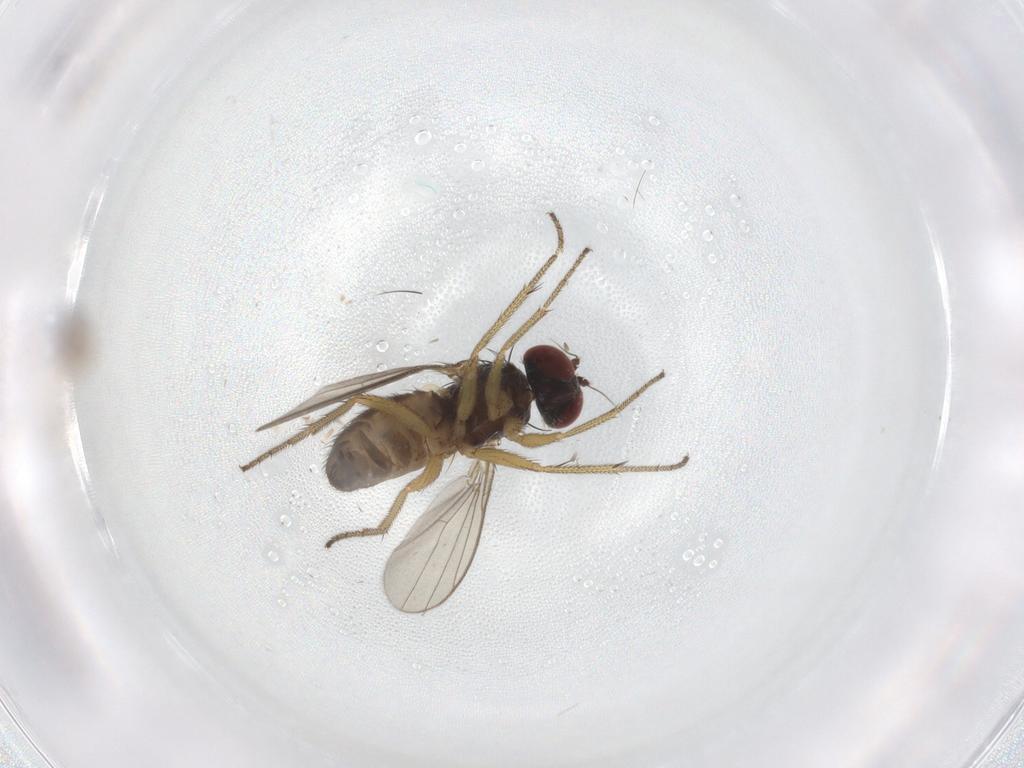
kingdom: Animalia
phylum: Arthropoda
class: Insecta
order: Diptera
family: Dolichopodidae
